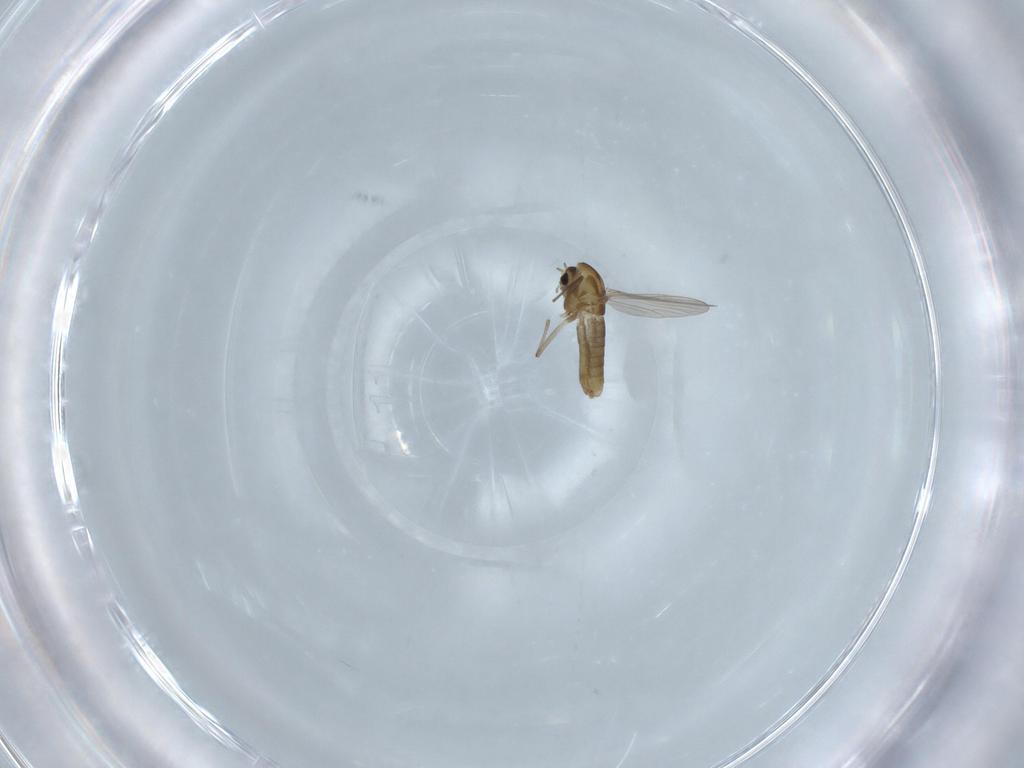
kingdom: Animalia
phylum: Arthropoda
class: Insecta
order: Diptera
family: Chironomidae
